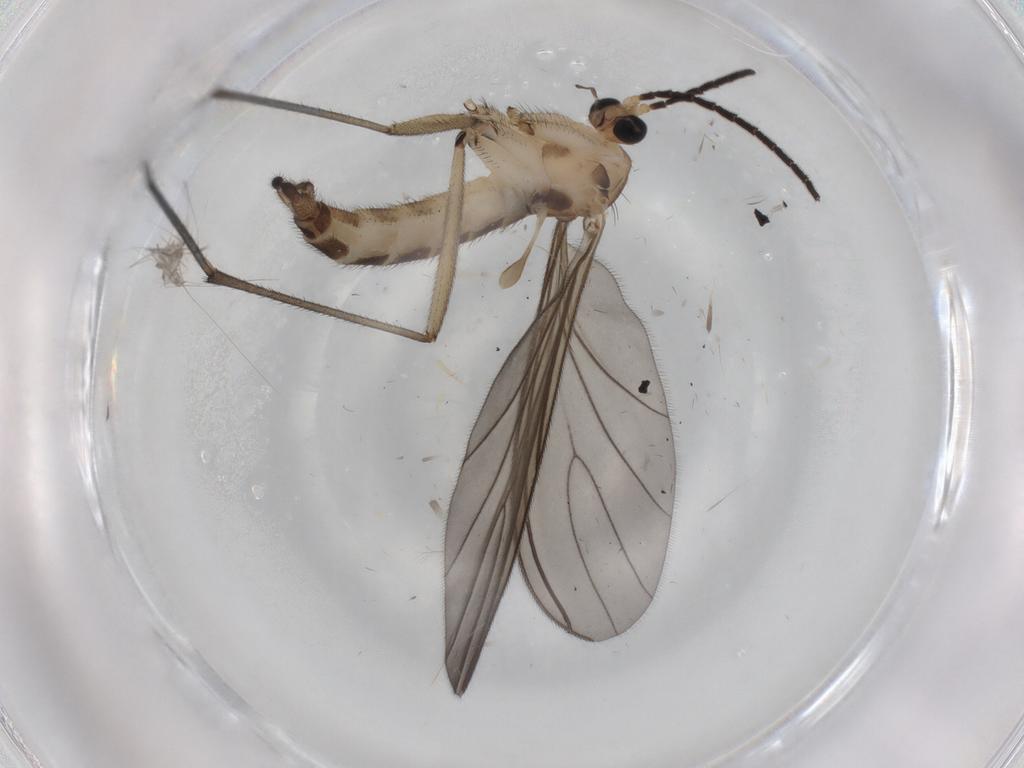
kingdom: Animalia
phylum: Arthropoda
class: Insecta
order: Diptera
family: Sciaridae
